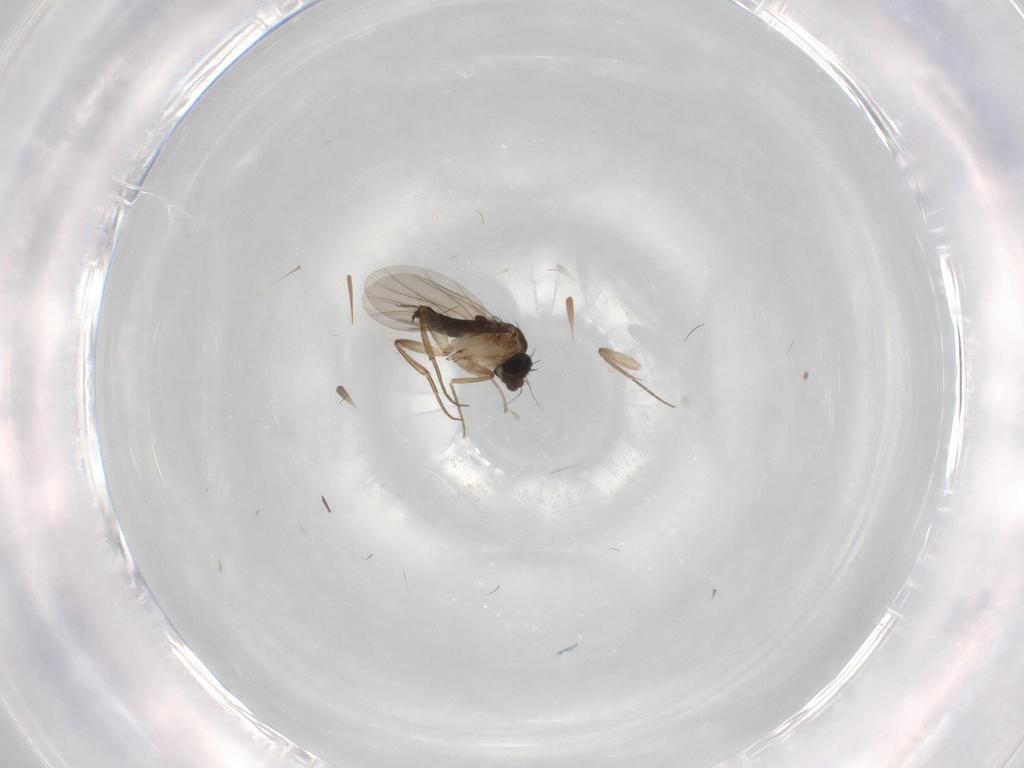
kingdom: Animalia
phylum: Arthropoda
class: Insecta
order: Diptera
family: Phoridae
